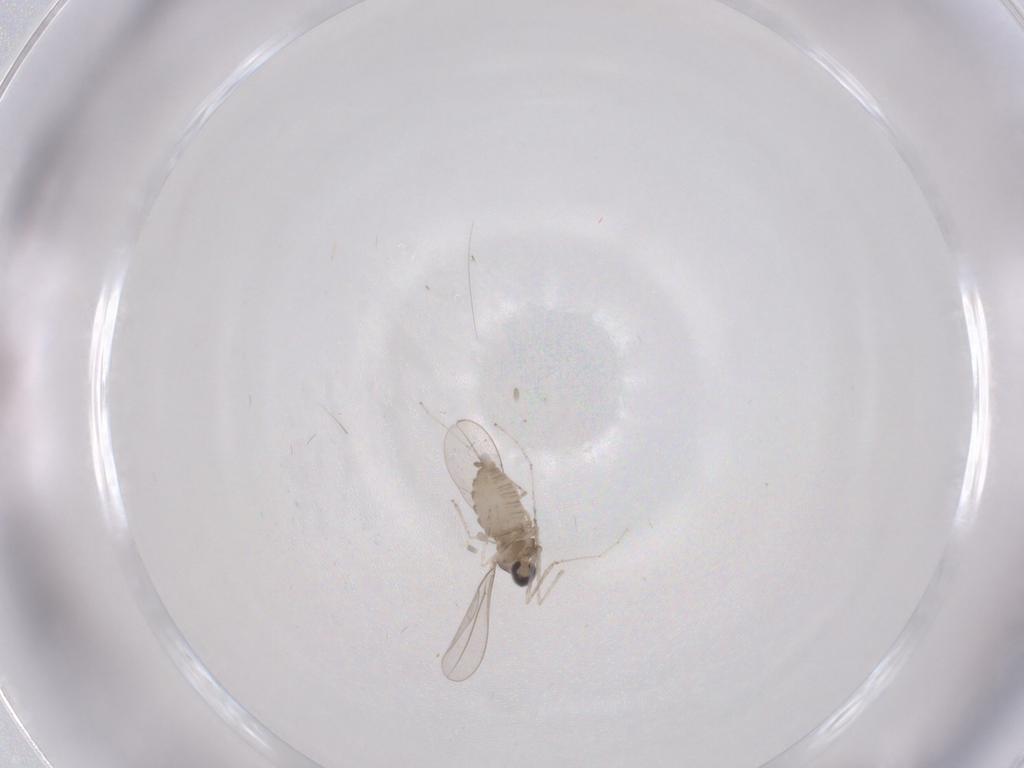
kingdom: Animalia
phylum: Arthropoda
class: Insecta
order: Diptera
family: Cecidomyiidae
